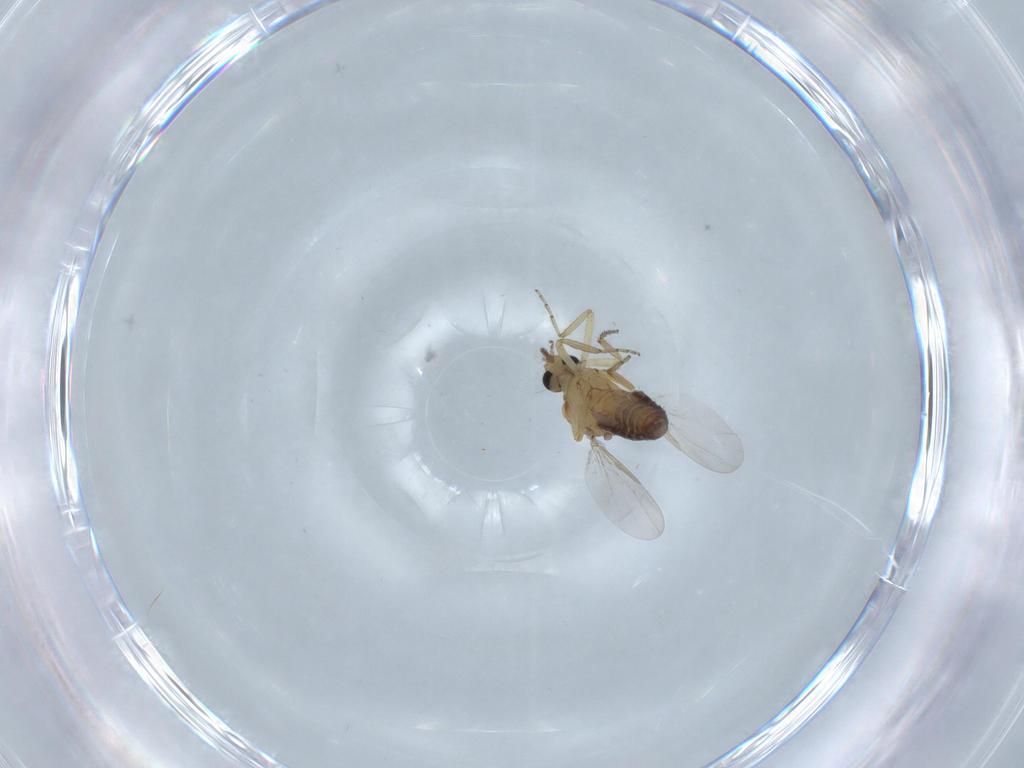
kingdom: Animalia
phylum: Arthropoda
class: Insecta
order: Diptera
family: Ceratopogonidae
